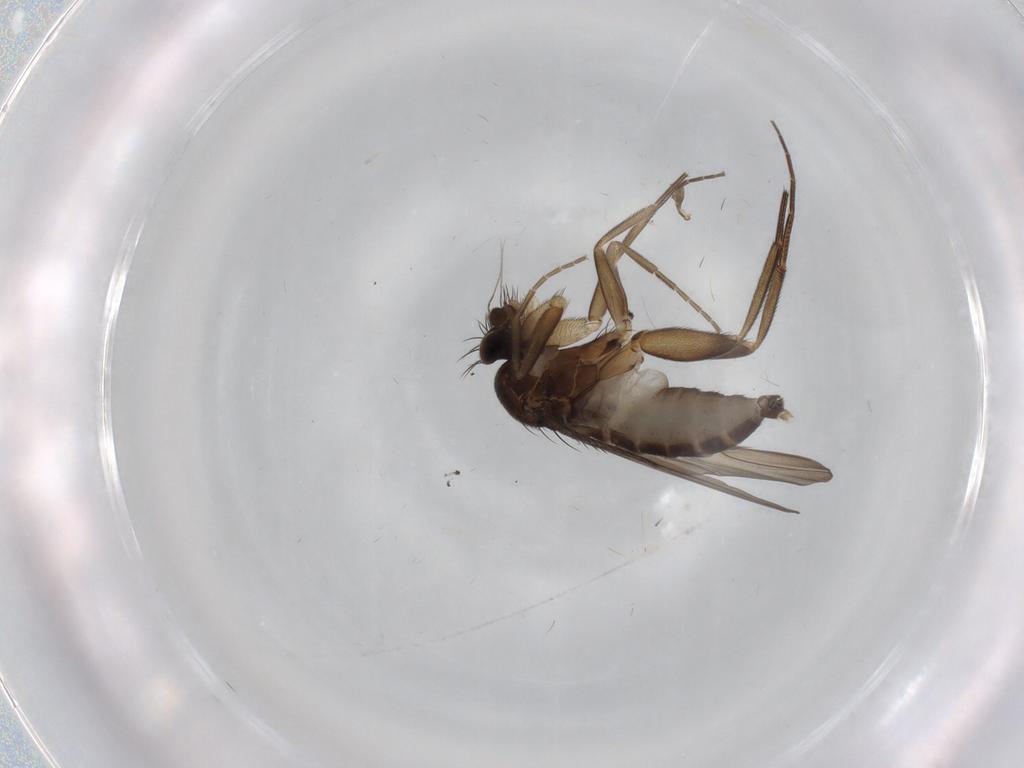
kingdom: Animalia
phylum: Arthropoda
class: Insecta
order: Diptera
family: Phoridae
